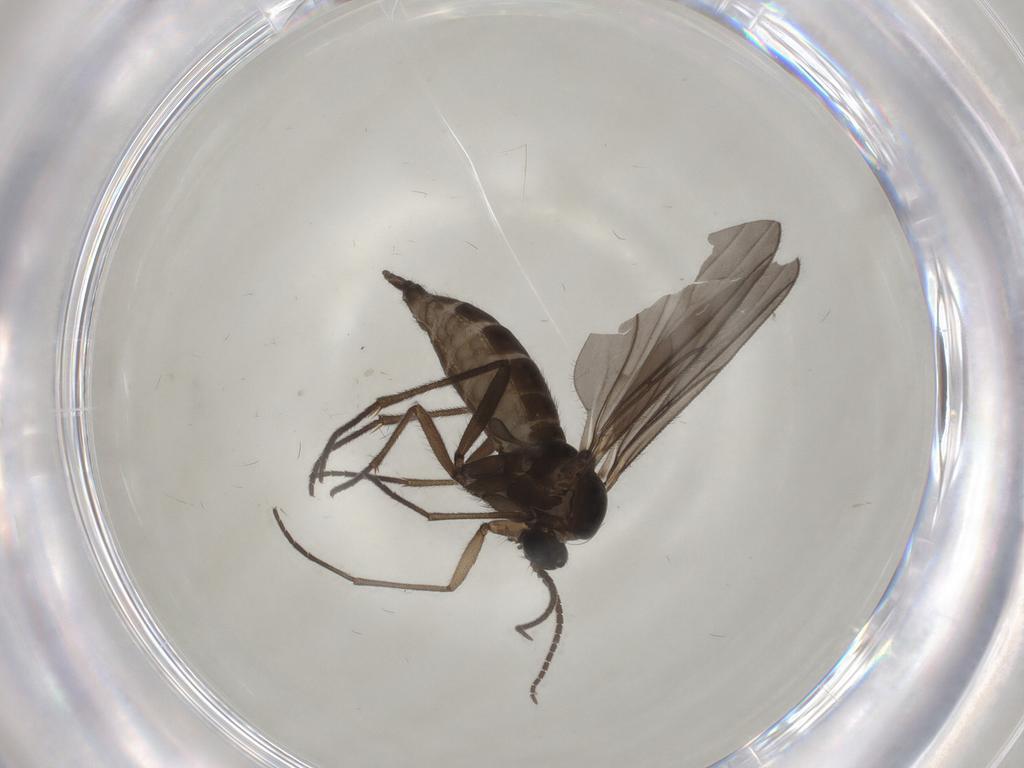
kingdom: Animalia
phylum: Arthropoda
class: Insecta
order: Diptera
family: Sciaridae
